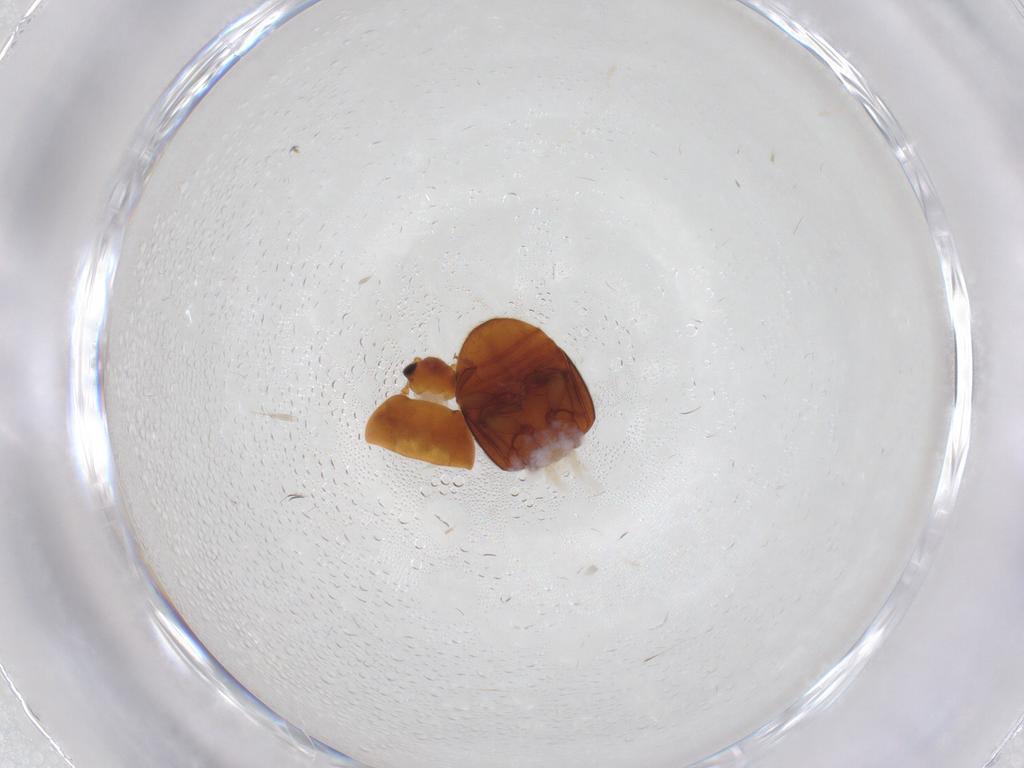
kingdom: Animalia
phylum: Arthropoda
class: Insecta
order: Coleoptera
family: Nitidulidae
